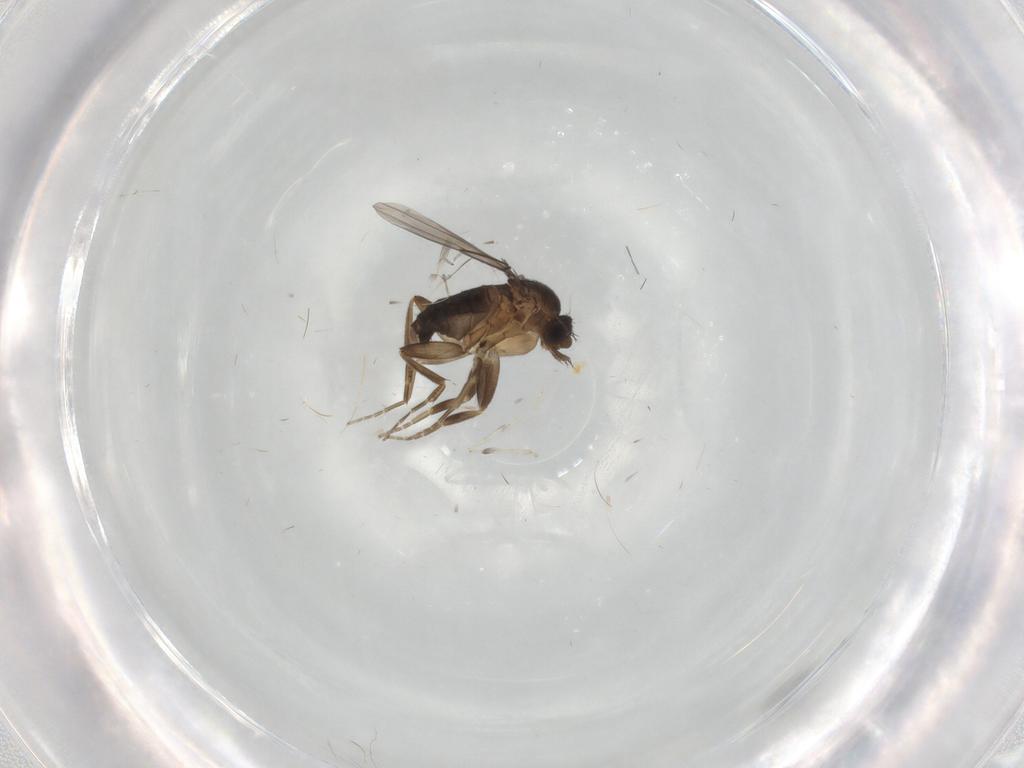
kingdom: Animalia
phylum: Arthropoda
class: Insecta
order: Diptera
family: Cecidomyiidae
